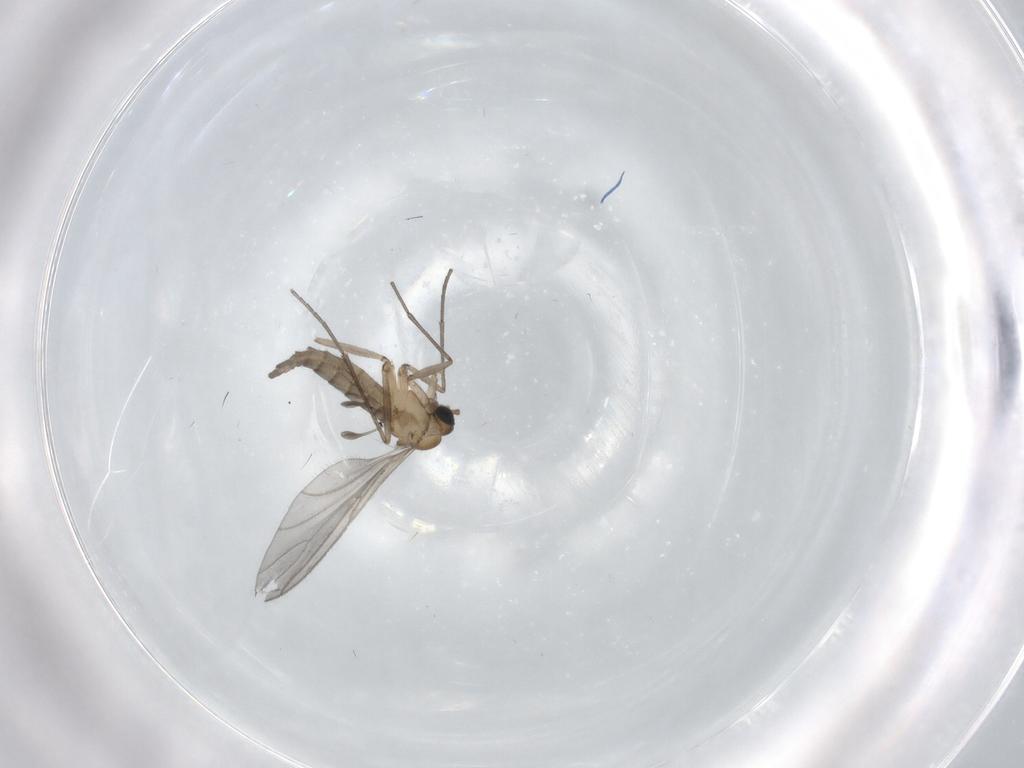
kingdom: Animalia
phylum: Arthropoda
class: Insecta
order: Diptera
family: Sciaridae
